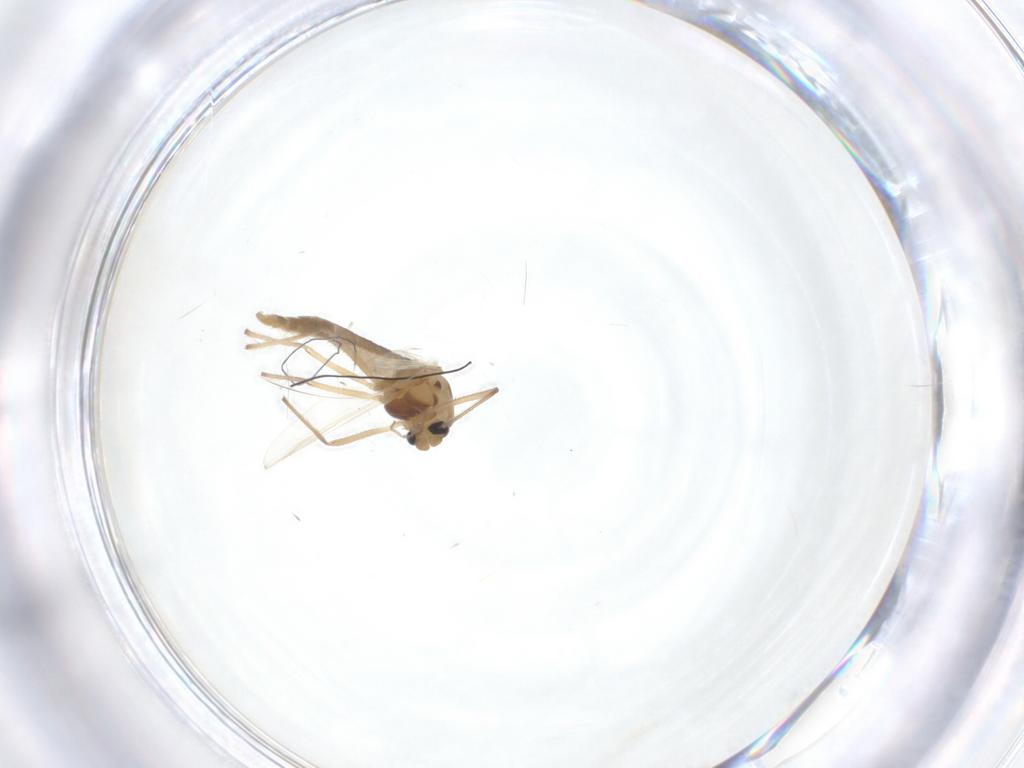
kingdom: Animalia
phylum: Arthropoda
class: Insecta
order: Diptera
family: Chironomidae
